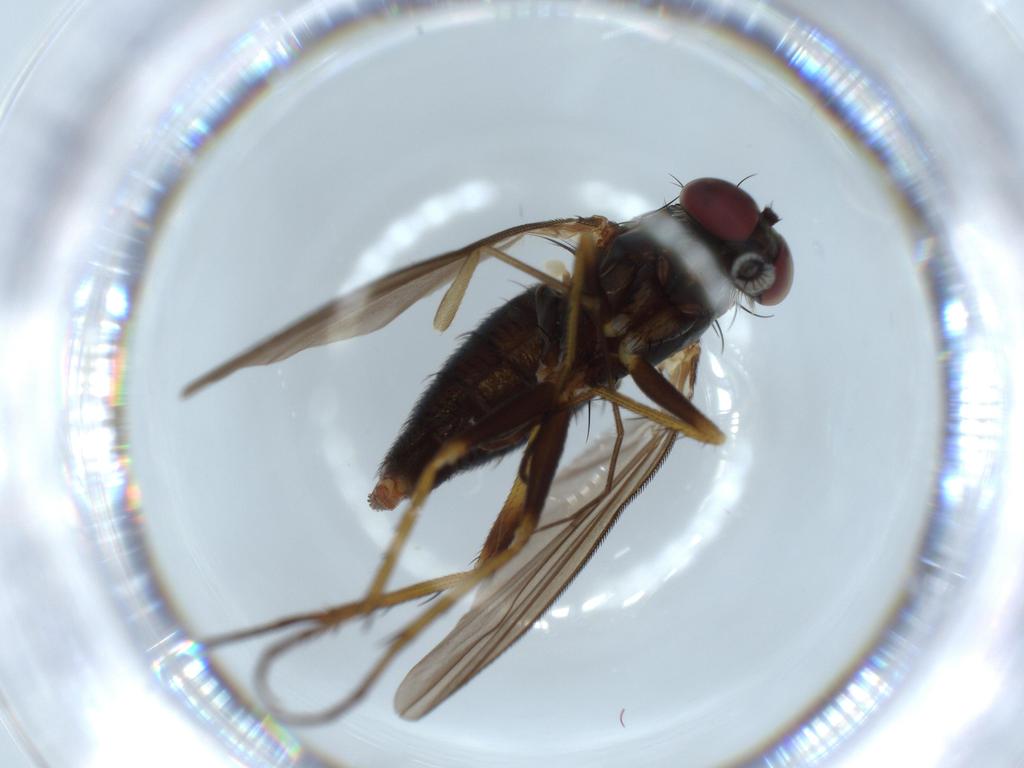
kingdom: Animalia
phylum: Arthropoda
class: Insecta
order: Diptera
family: Dolichopodidae
